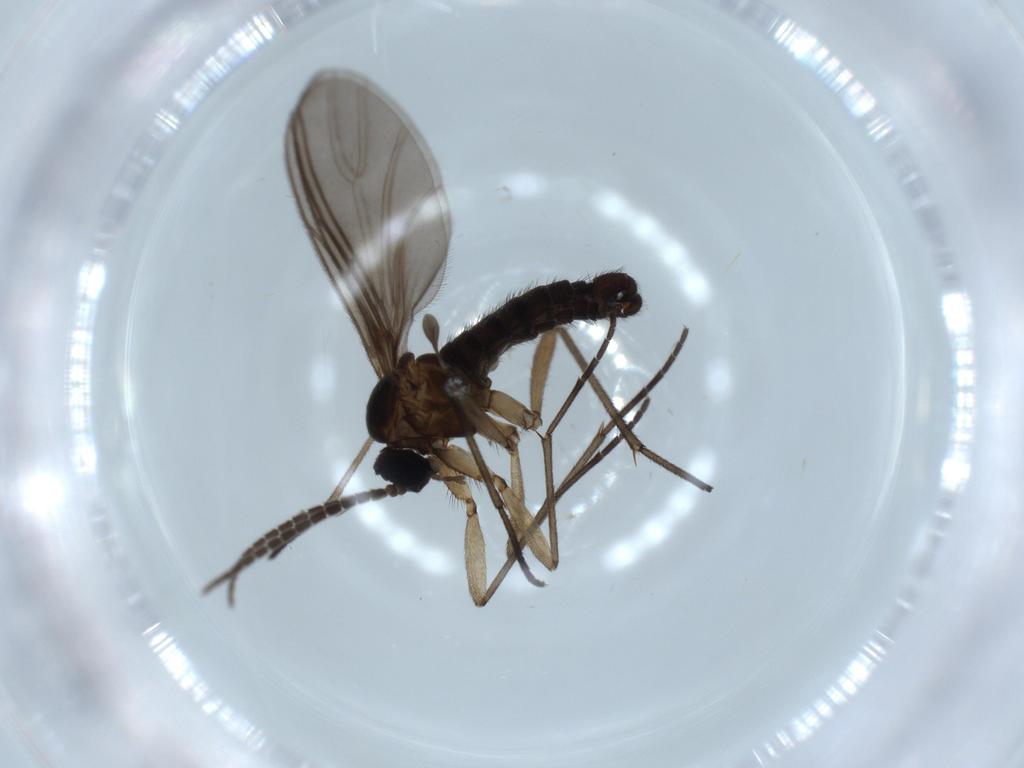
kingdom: Animalia
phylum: Arthropoda
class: Insecta
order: Diptera
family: Sciaridae
